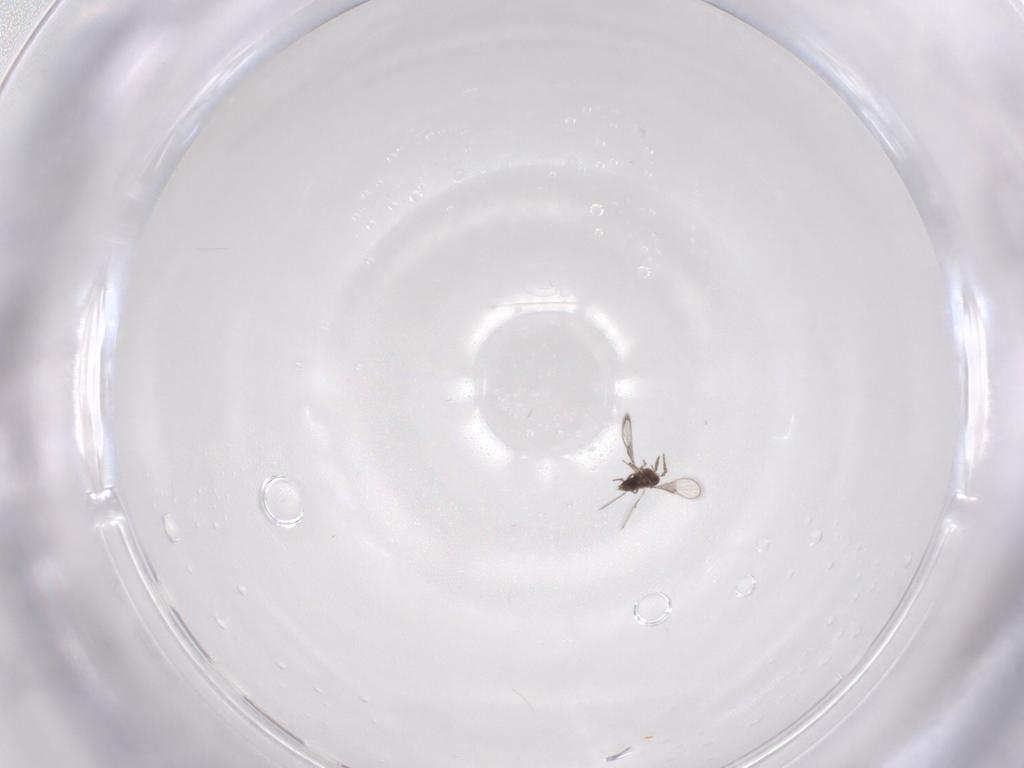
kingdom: Animalia
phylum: Arthropoda
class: Insecta
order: Hymenoptera
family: Trichogrammatidae
